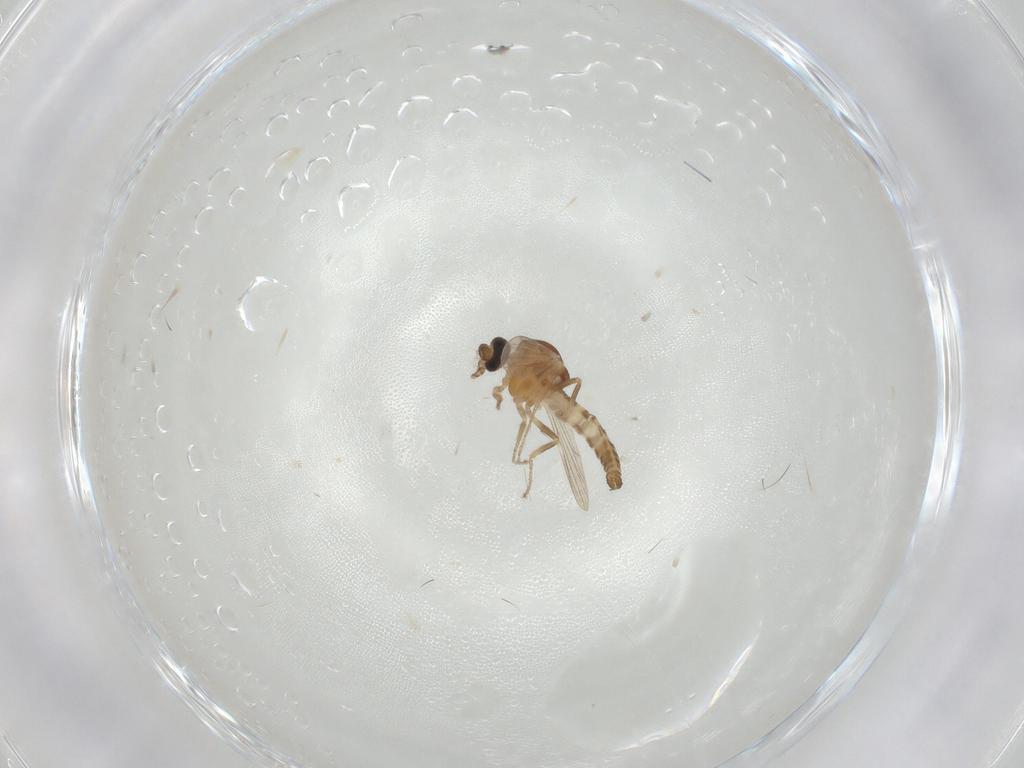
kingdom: Animalia
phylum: Arthropoda
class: Insecta
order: Diptera
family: Ceratopogonidae
